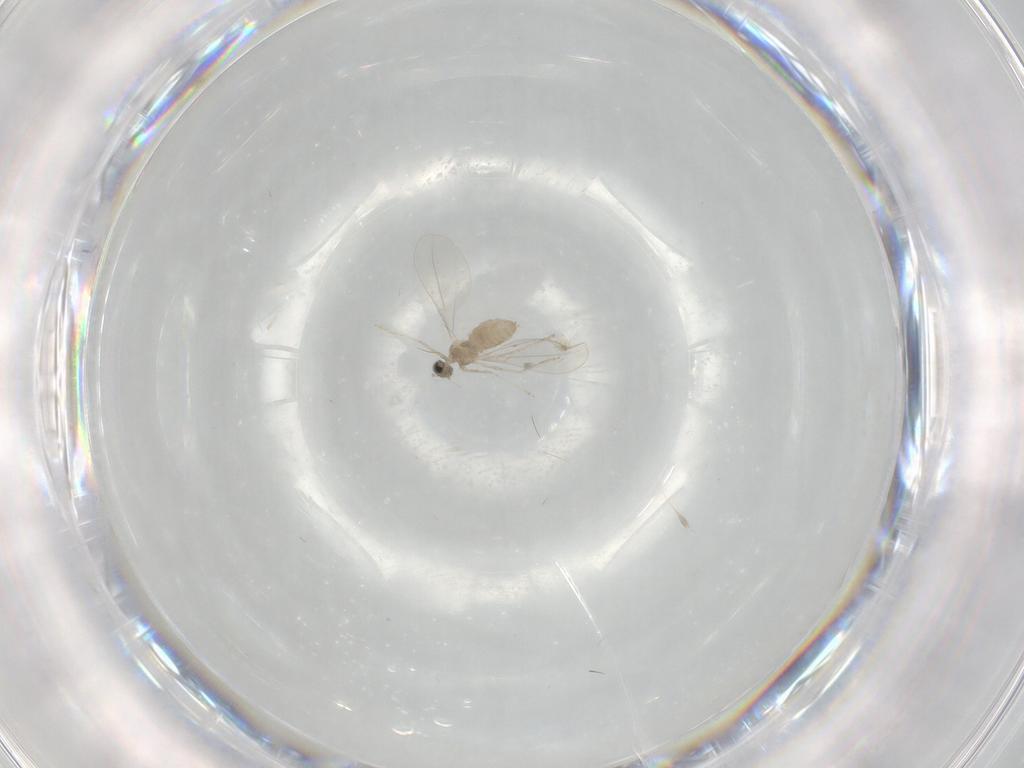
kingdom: Animalia
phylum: Arthropoda
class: Insecta
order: Diptera
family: Cecidomyiidae
